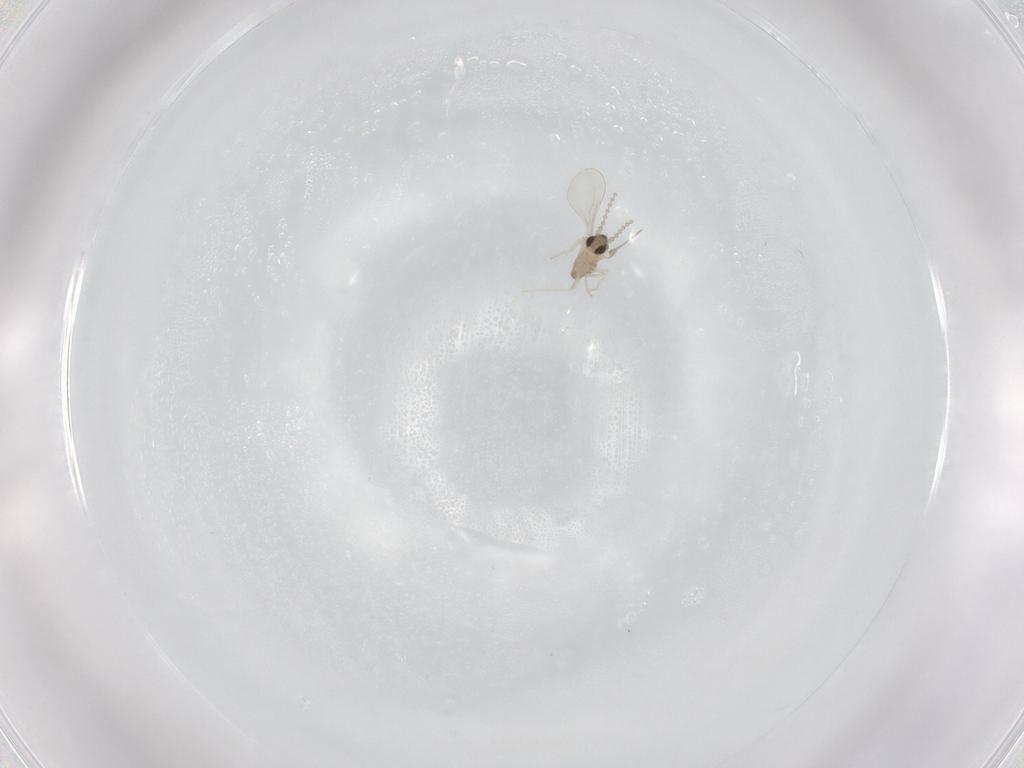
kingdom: Animalia
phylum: Arthropoda
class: Insecta
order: Diptera
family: Cecidomyiidae
